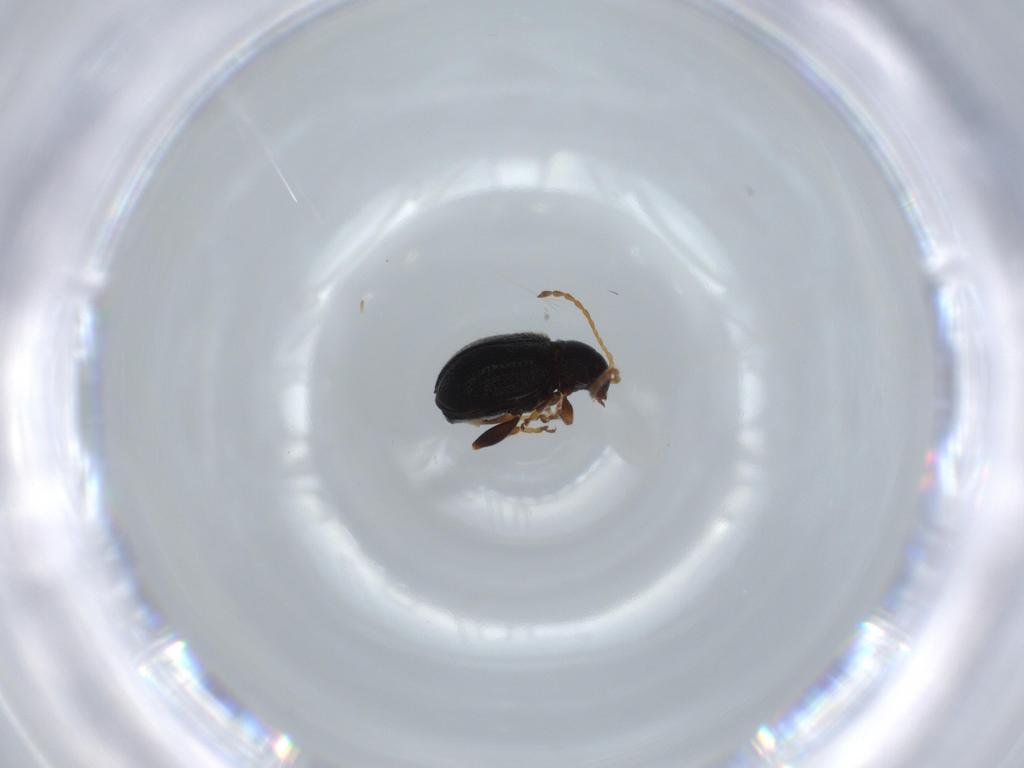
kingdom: Animalia
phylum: Arthropoda
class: Insecta
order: Coleoptera
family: Chrysomelidae
